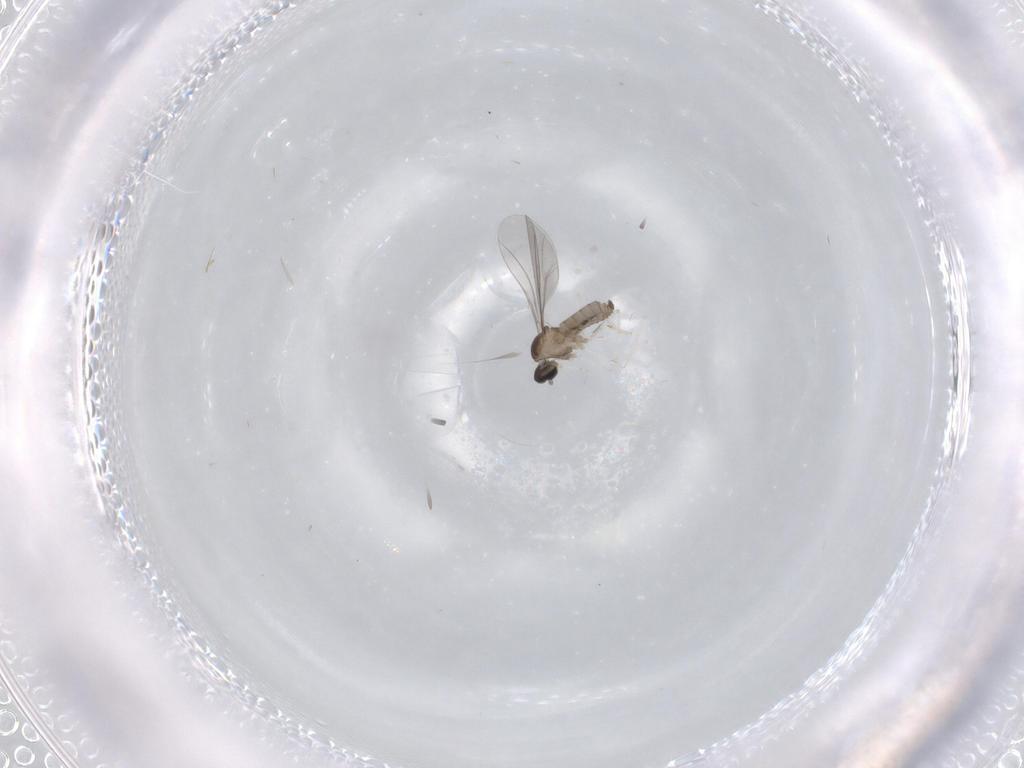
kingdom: Animalia
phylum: Arthropoda
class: Insecta
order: Diptera
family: Cecidomyiidae
